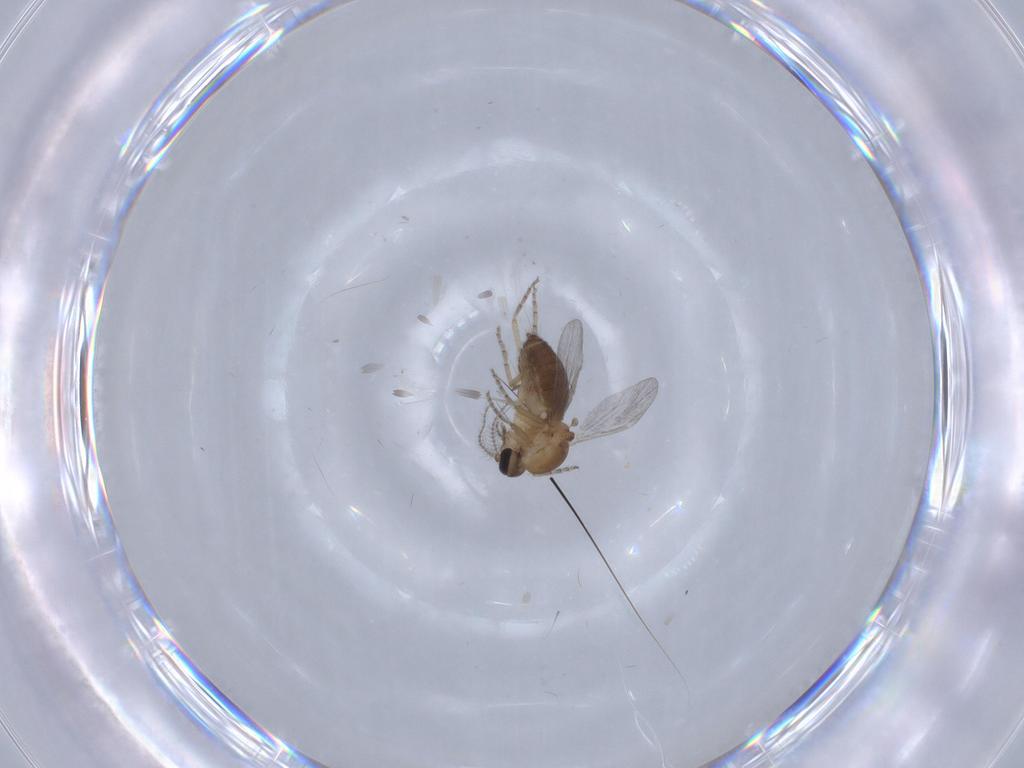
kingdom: Animalia
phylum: Arthropoda
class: Insecta
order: Diptera
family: Ceratopogonidae
